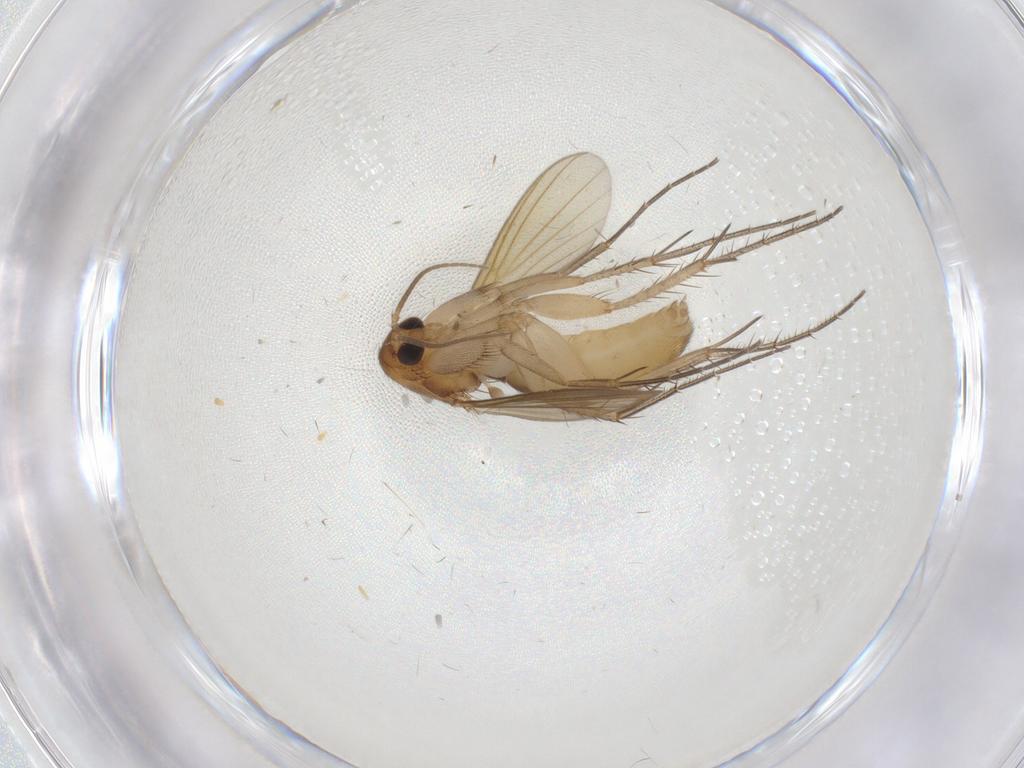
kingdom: Animalia
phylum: Arthropoda
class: Insecta
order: Diptera
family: Mycetophilidae
